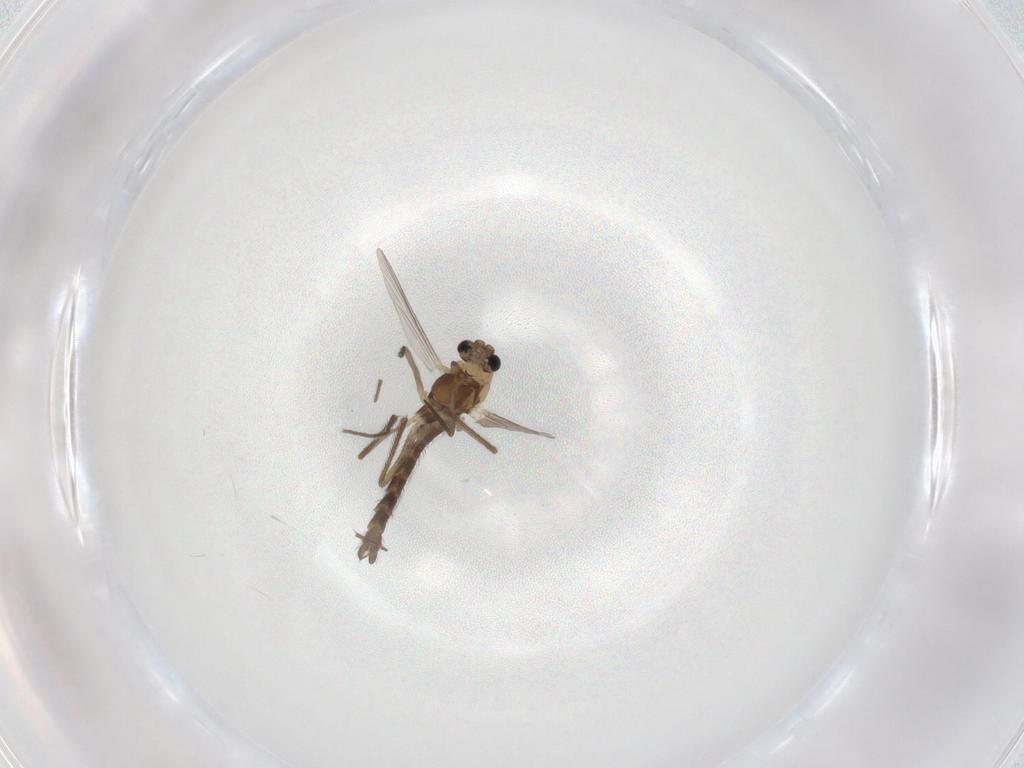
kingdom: Animalia
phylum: Arthropoda
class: Insecta
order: Diptera
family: Chironomidae
